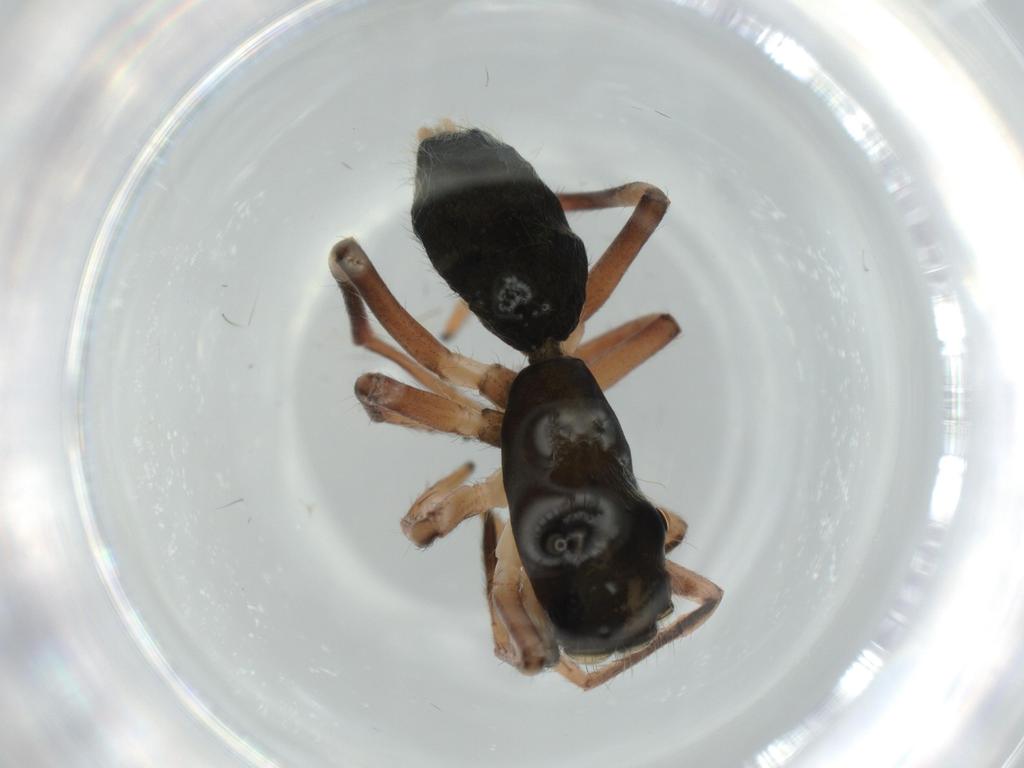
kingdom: Animalia
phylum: Arthropoda
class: Arachnida
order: Araneae
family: Salticidae
